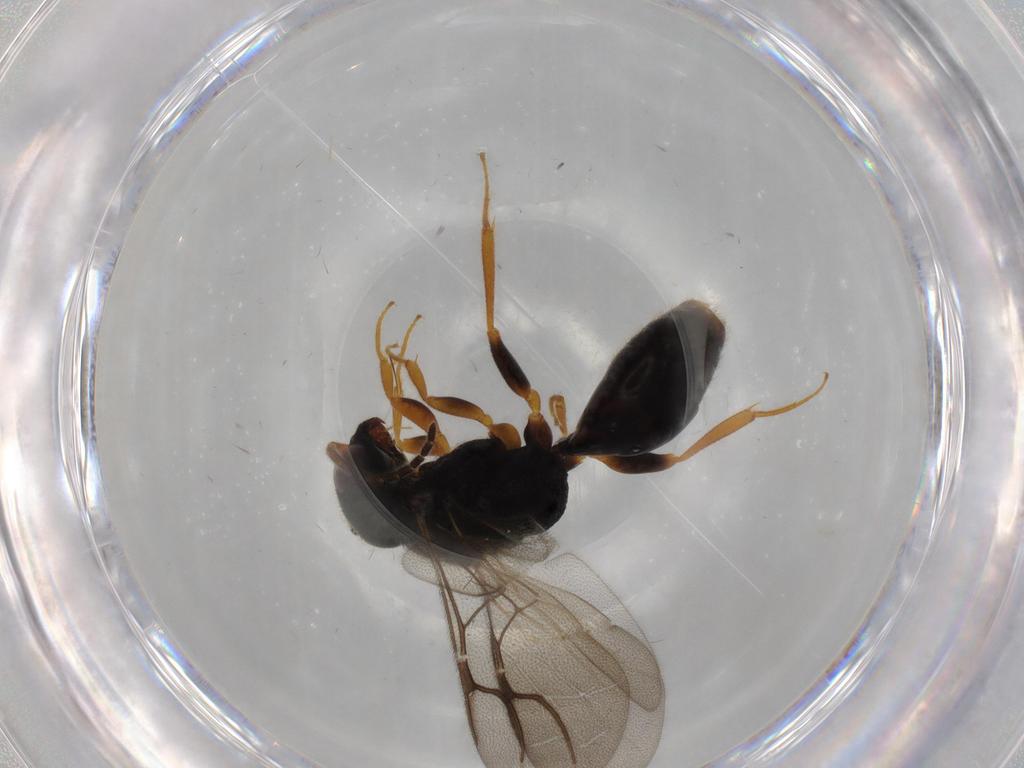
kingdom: Animalia
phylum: Arthropoda
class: Insecta
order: Hymenoptera
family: Bethylidae
